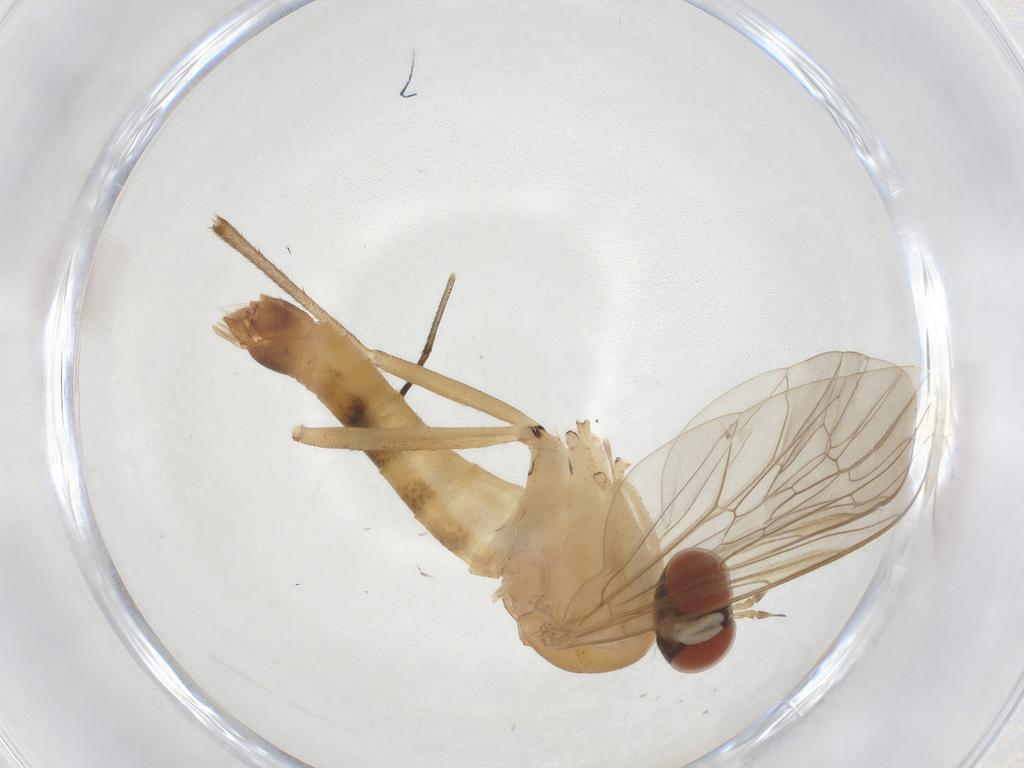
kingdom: Animalia
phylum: Arthropoda
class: Insecta
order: Diptera
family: Apsilocephalidae
